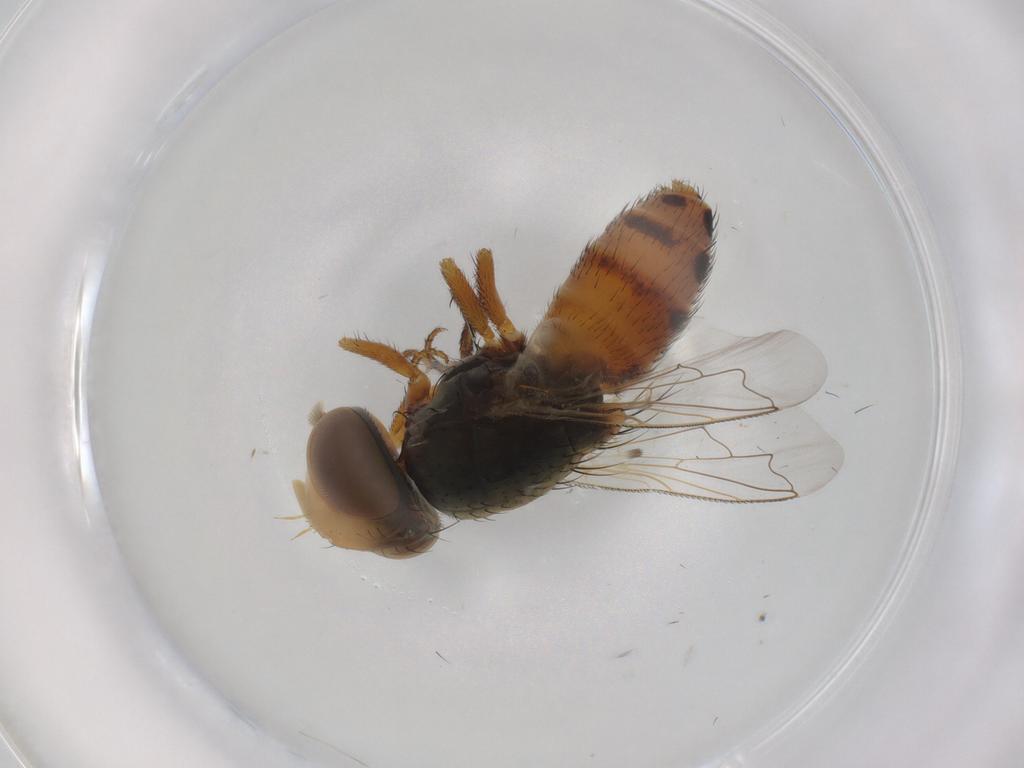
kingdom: Animalia
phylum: Arthropoda
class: Insecta
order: Diptera
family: Sarcophagidae
